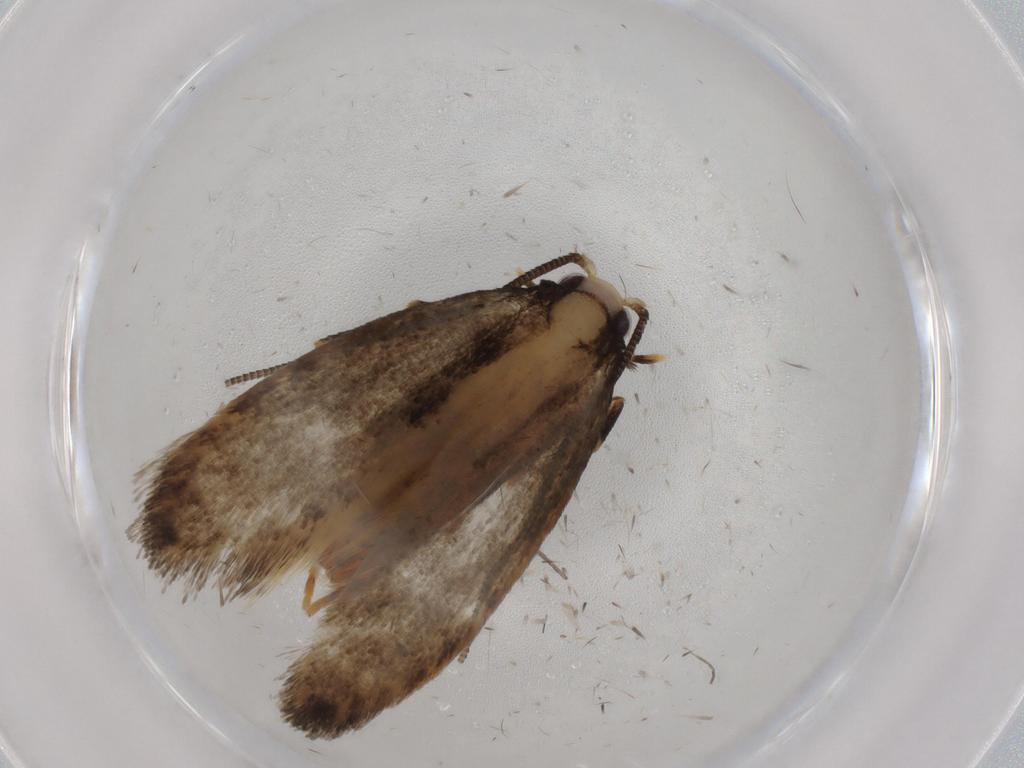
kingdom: Animalia
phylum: Arthropoda
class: Insecta
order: Lepidoptera
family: Tineidae
